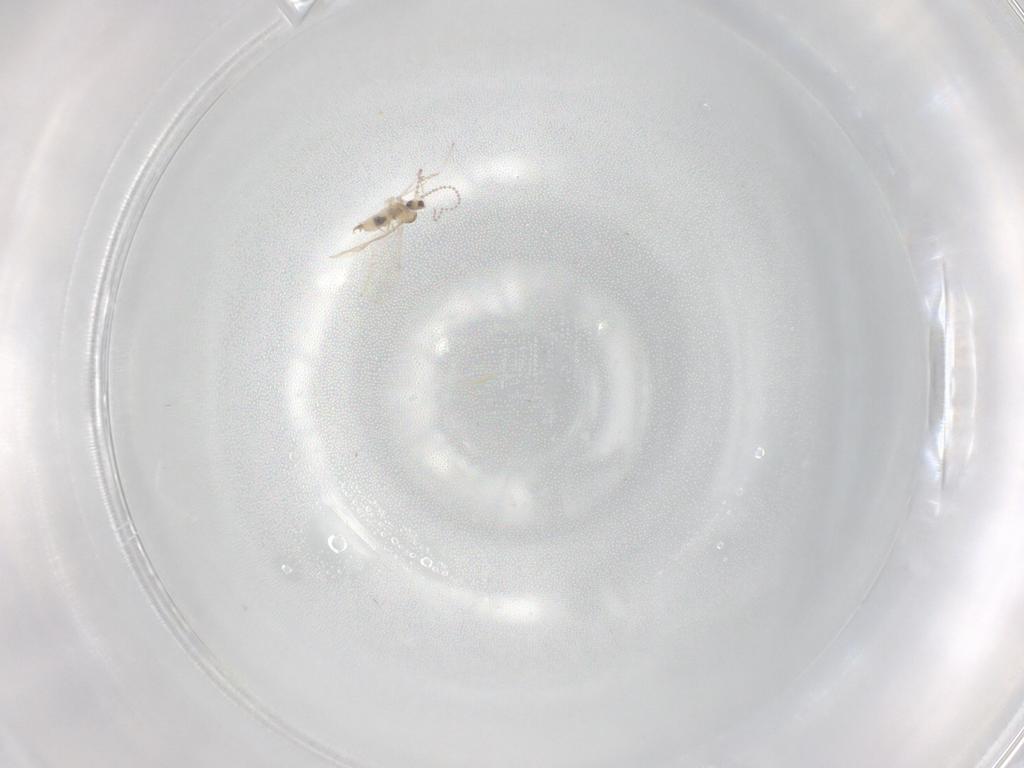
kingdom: Animalia
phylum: Arthropoda
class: Insecta
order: Diptera
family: Cecidomyiidae
